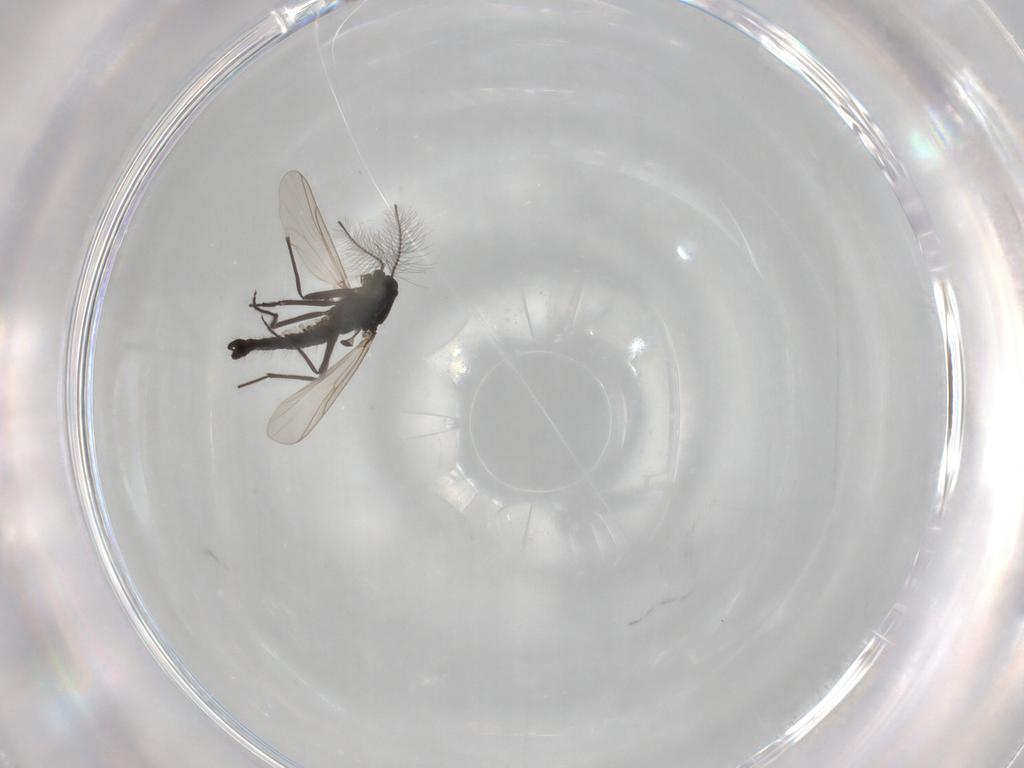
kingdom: Animalia
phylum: Arthropoda
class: Insecta
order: Diptera
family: Chironomidae
